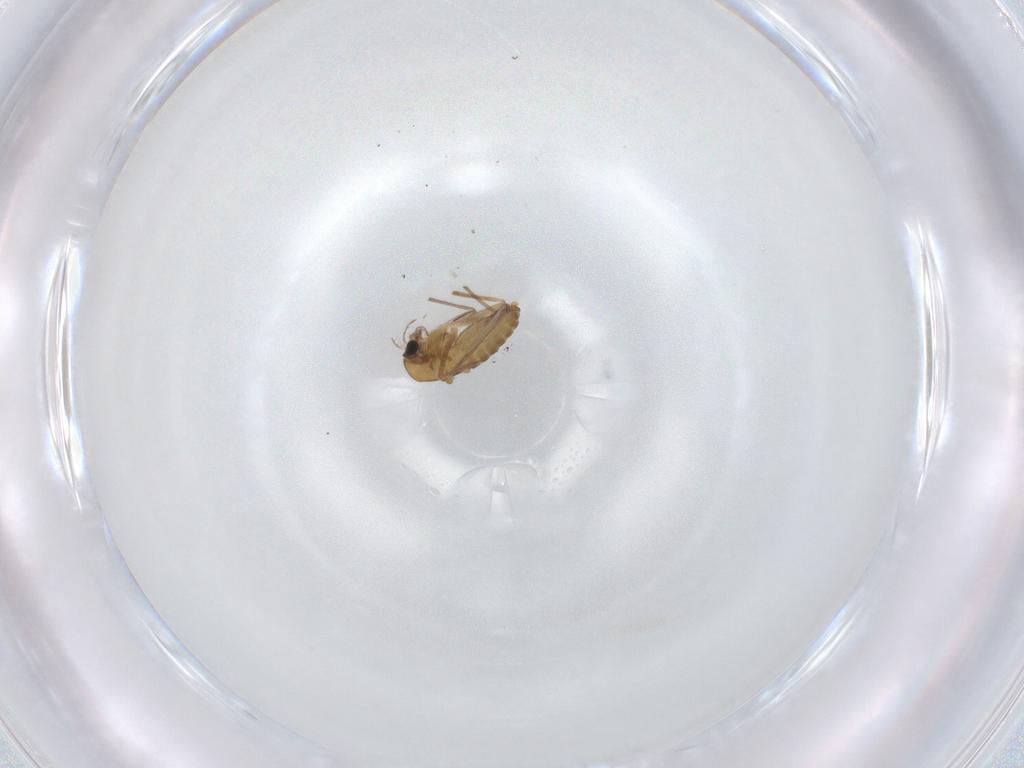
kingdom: Animalia
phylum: Arthropoda
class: Insecta
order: Diptera
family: Chironomidae
